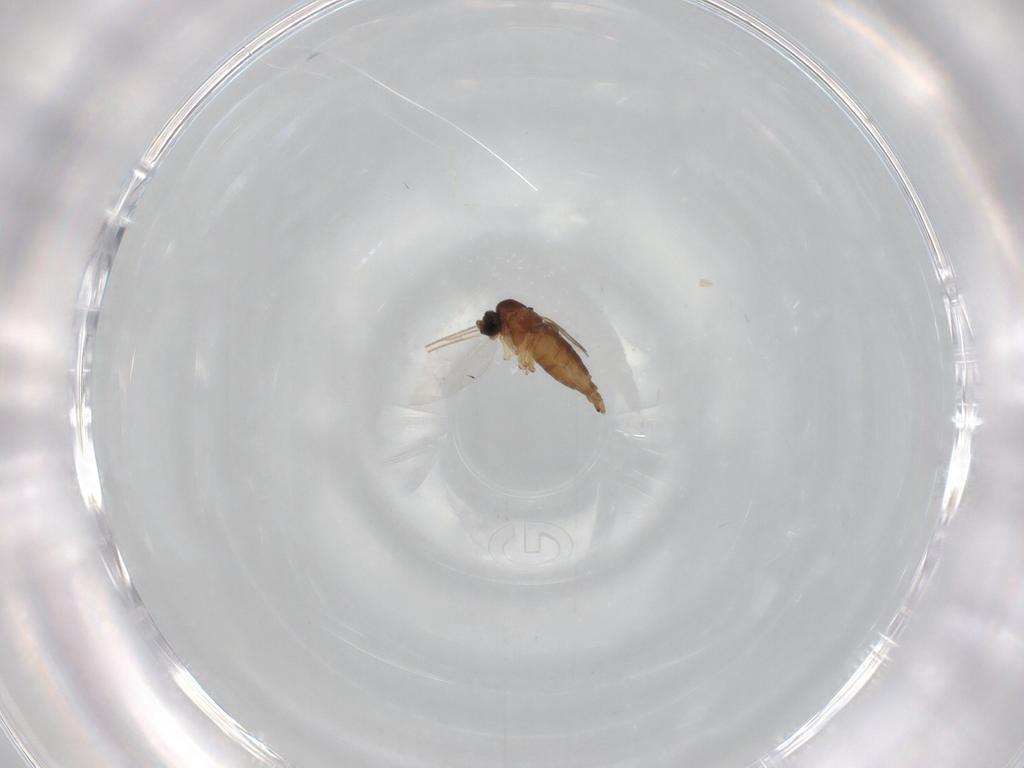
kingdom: Animalia
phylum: Arthropoda
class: Insecta
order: Diptera
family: Sciaridae
